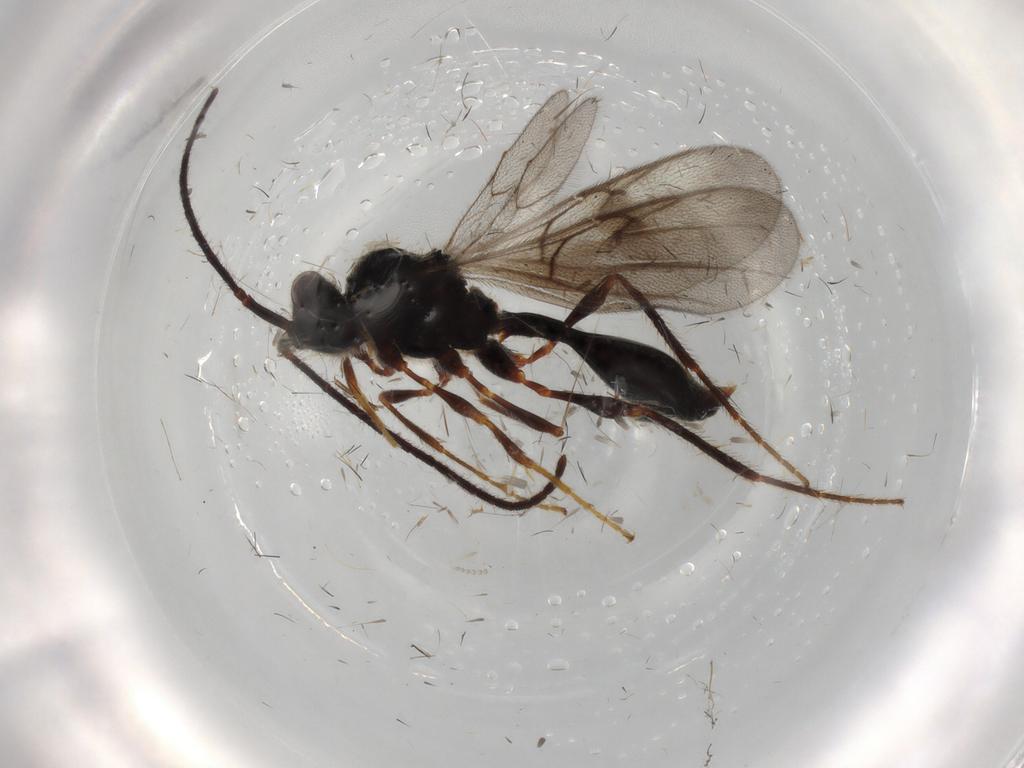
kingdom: Animalia
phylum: Arthropoda
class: Insecta
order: Hymenoptera
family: Diapriidae
